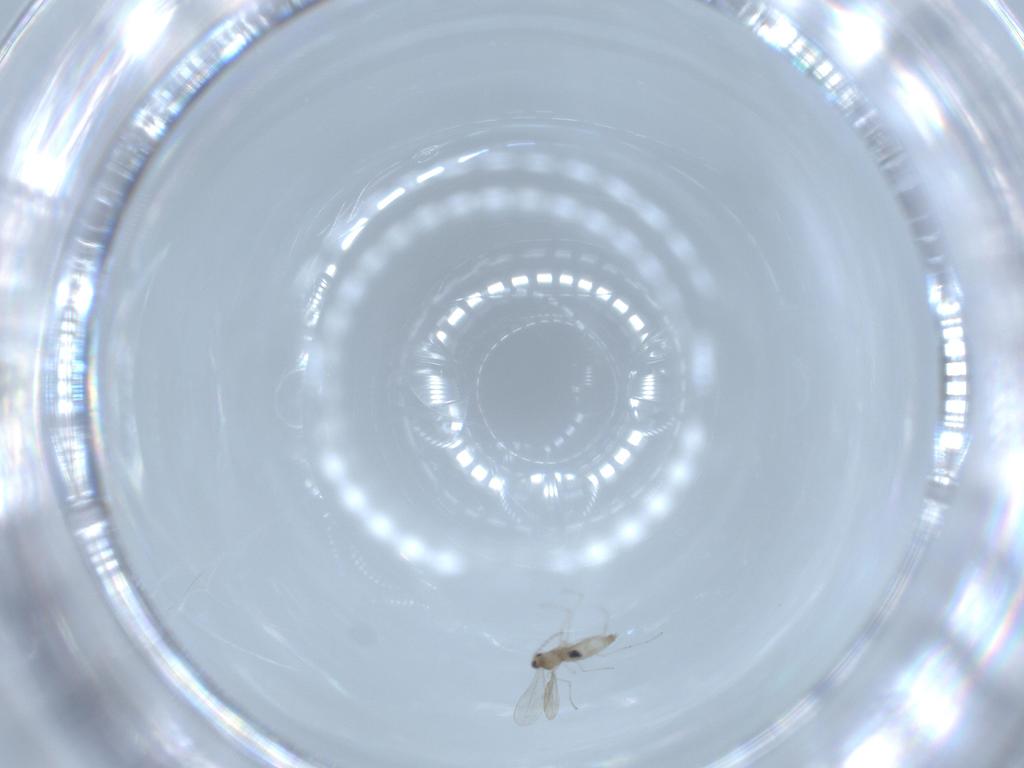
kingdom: Animalia
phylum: Arthropoda
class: Insecta
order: Diptera
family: Cecidomyiidae
